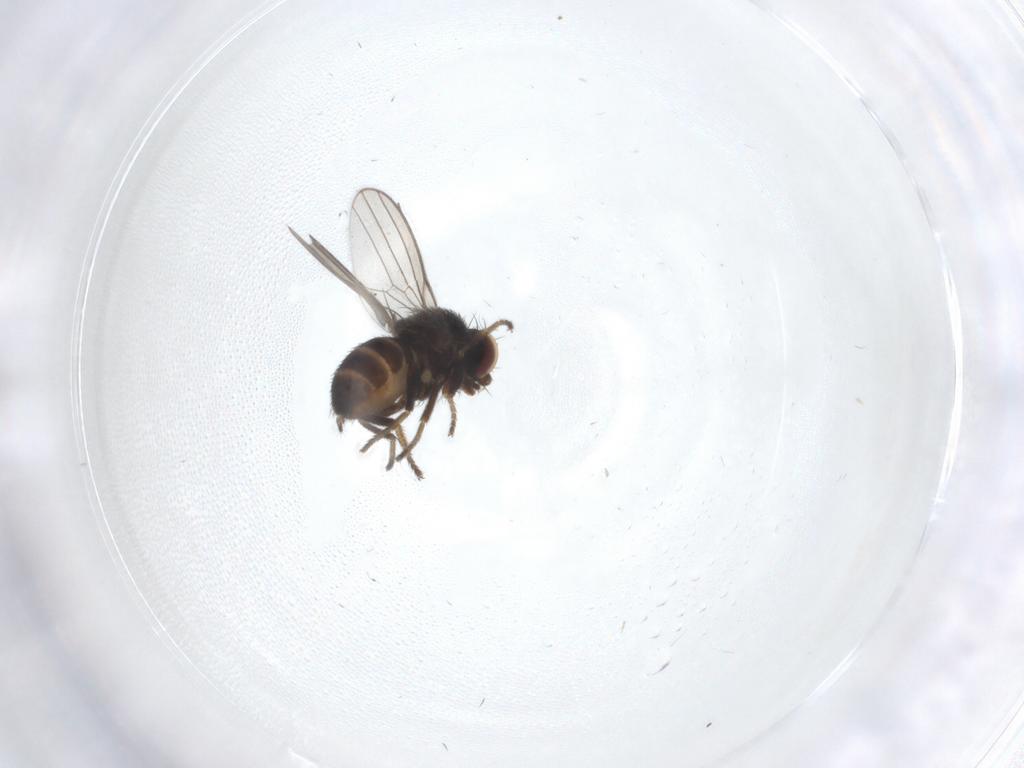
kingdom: Animalia
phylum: Arthropoda
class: Insecta
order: Diptera
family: Milichiidae
